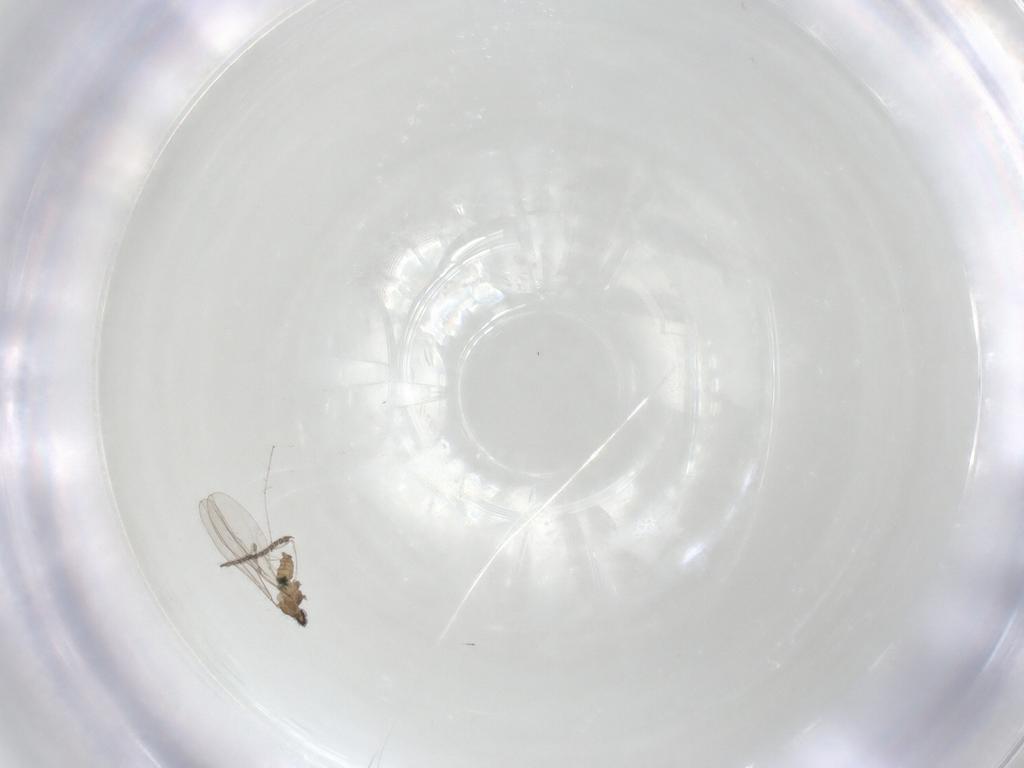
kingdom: Animalia
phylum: Arthropoda
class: Insecta
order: Diptera
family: Cecidomyiidae
